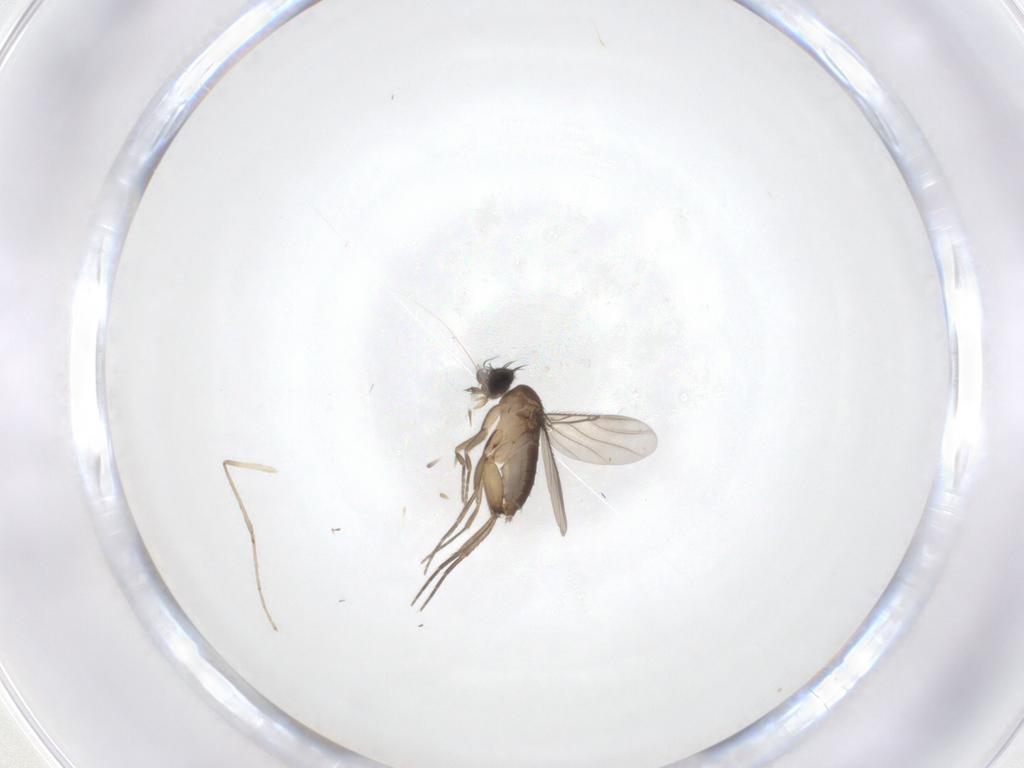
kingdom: Animalia
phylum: Arthropoda
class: Insecta
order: Diptera
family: Phoridae
